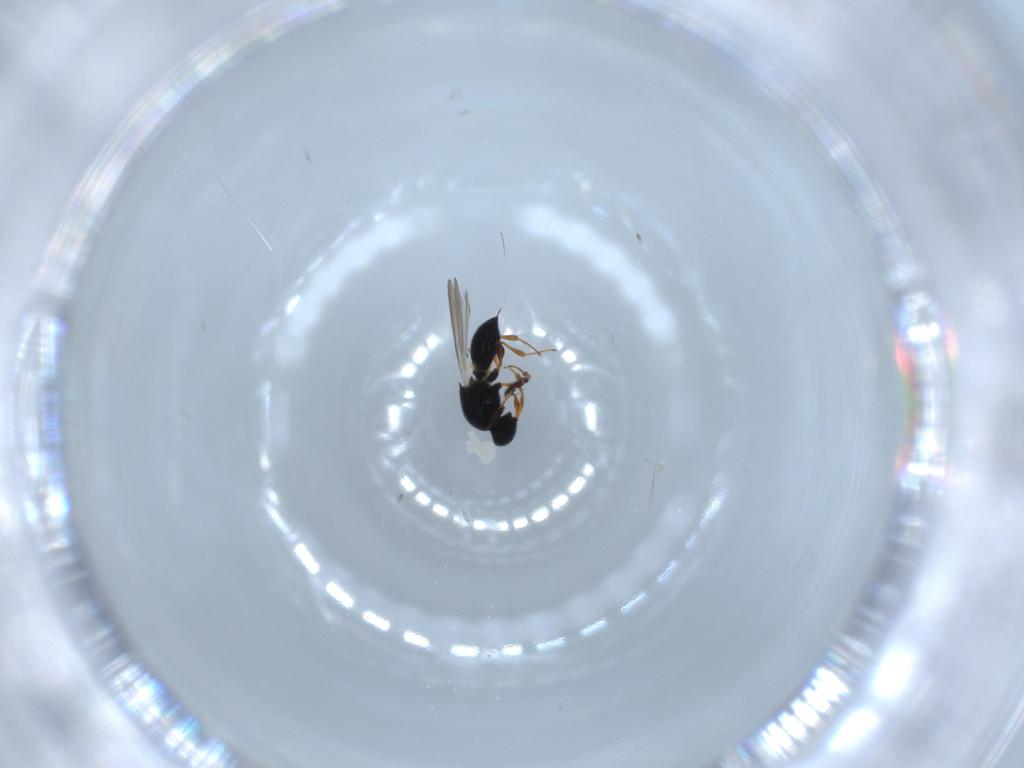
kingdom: Animalia
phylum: Arthropoda
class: Insecta
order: Hymenoptera
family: Platygastridae
